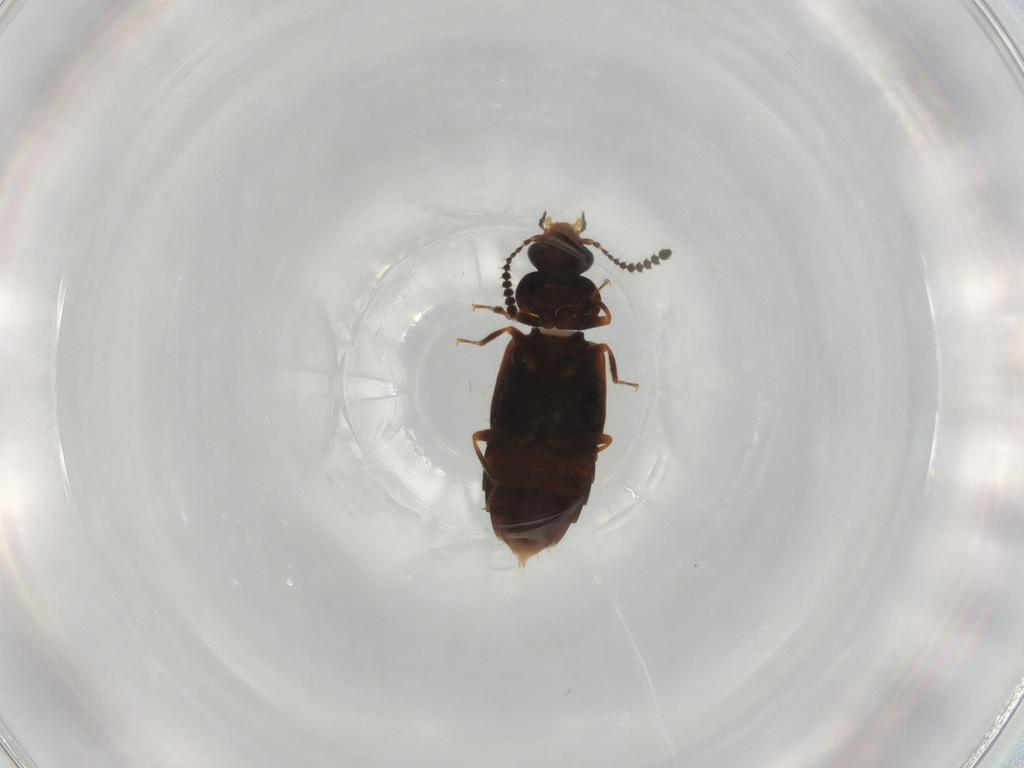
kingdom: Animalia
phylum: Arthropoda
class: Insecta
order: Coleoptera
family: Staphylinidae
